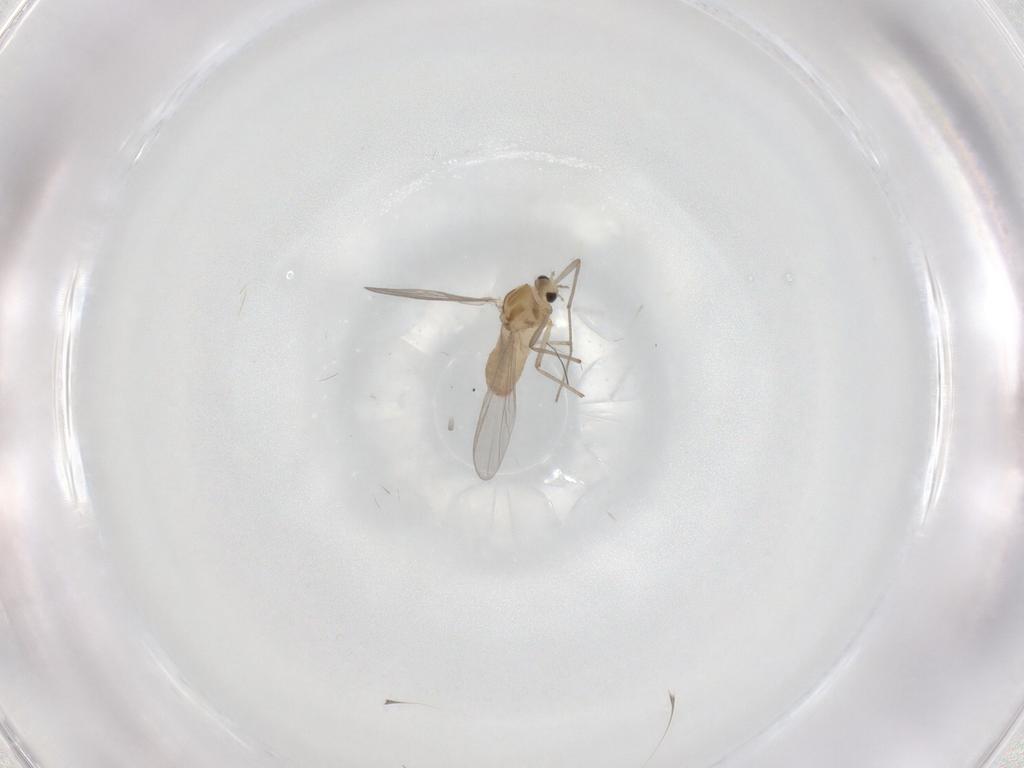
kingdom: Animalia
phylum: Arthropoda
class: Insecta
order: Diptera
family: Chironomidae
